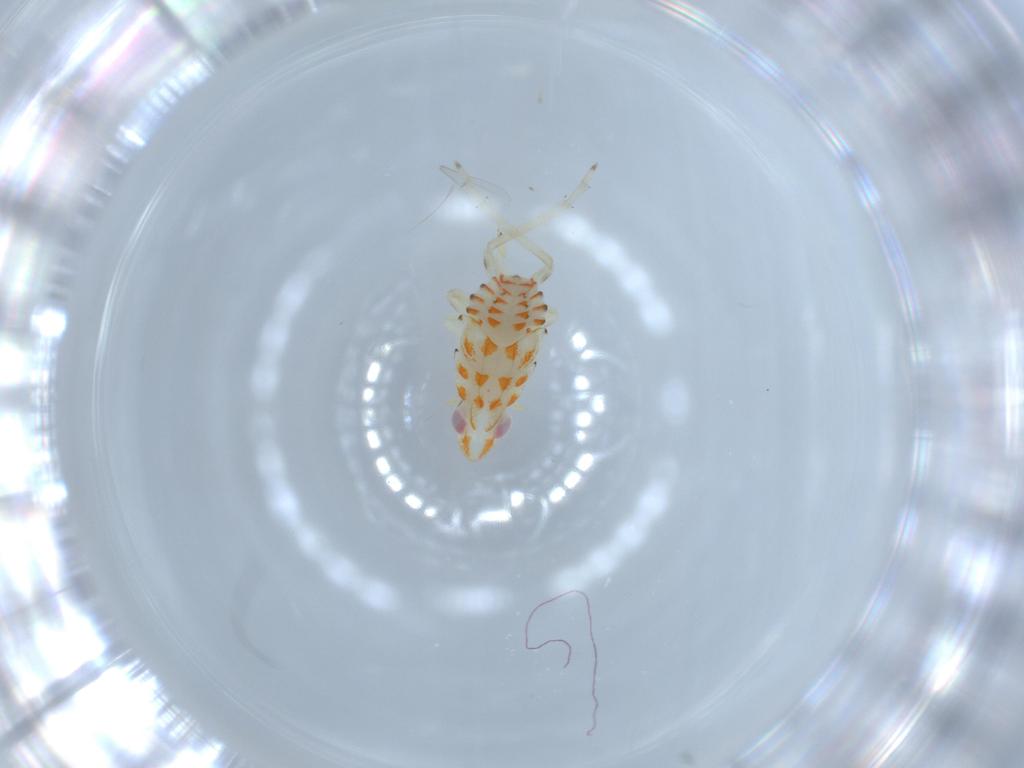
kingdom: Animalia
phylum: Arthropoda
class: Insecta
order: Hemiptera
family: Tropiduchidae
